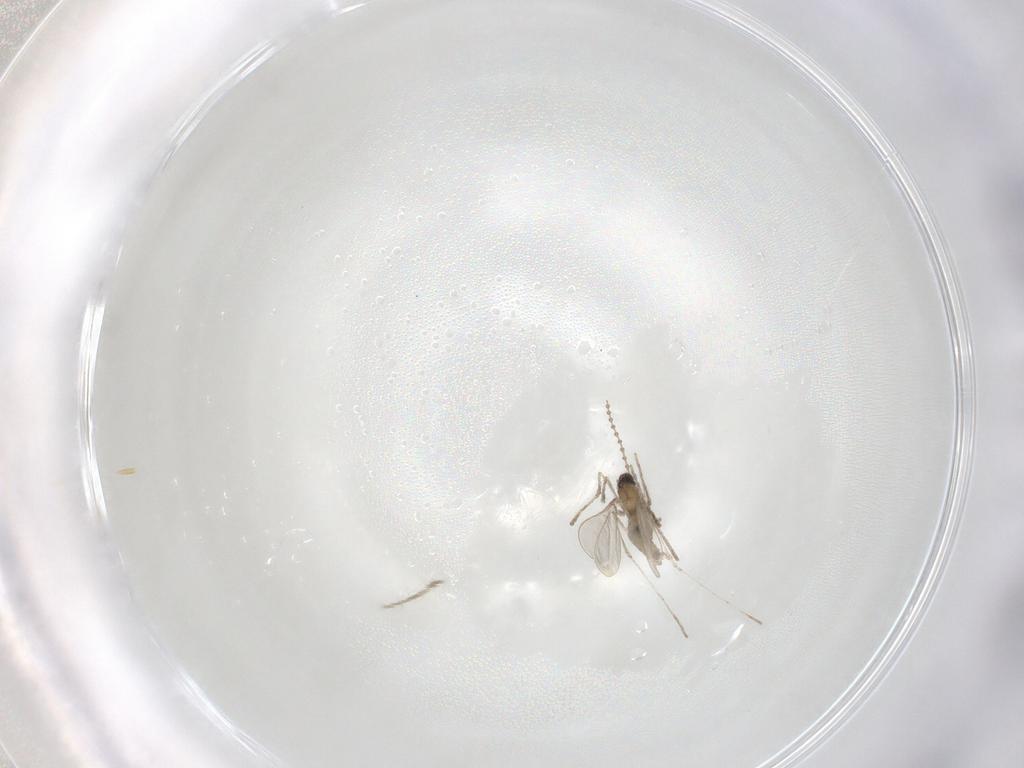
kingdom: Animalia
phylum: Arthropoda
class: Insecta
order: Diptera
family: Cecidomyiidae
